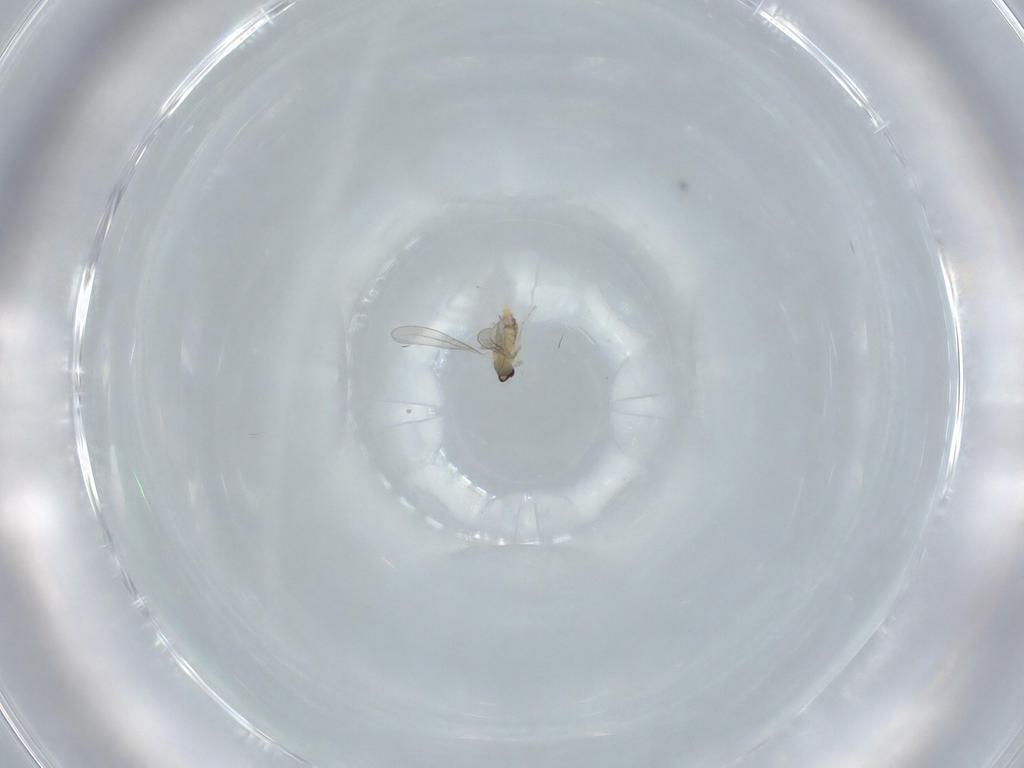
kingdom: Animalia
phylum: Arthropoda
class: Insecta
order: Diptera
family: Cecidomyiidae
